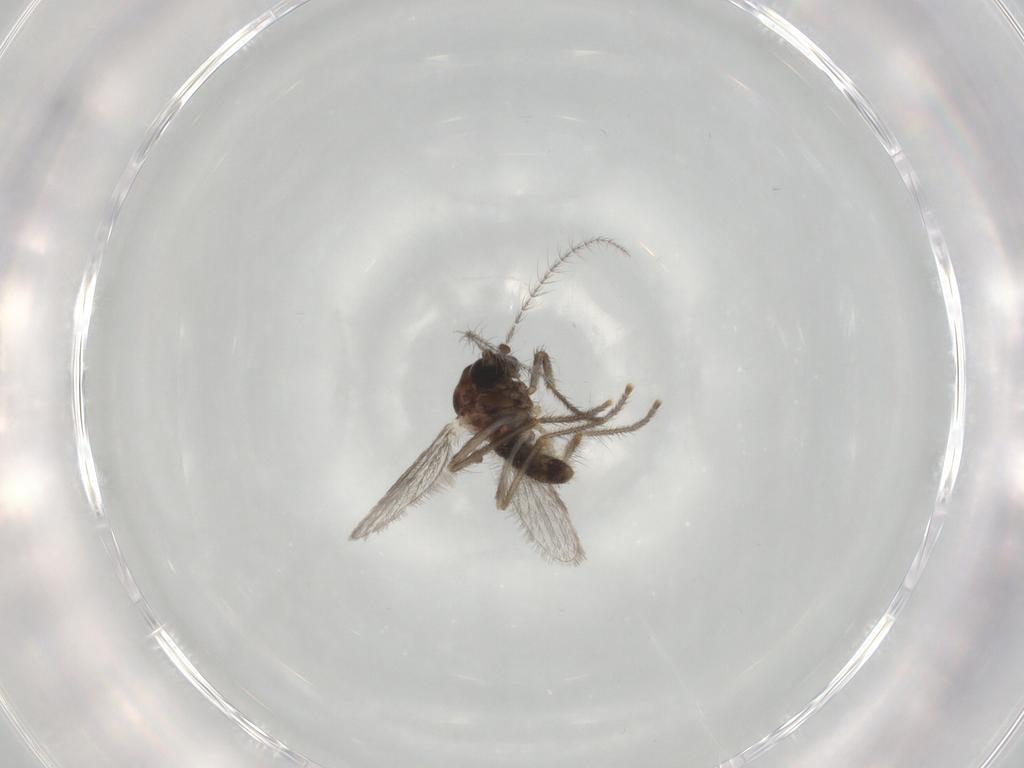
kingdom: Animalia
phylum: Arthropoda
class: Insecta
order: Diptera
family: Corethrellidae
